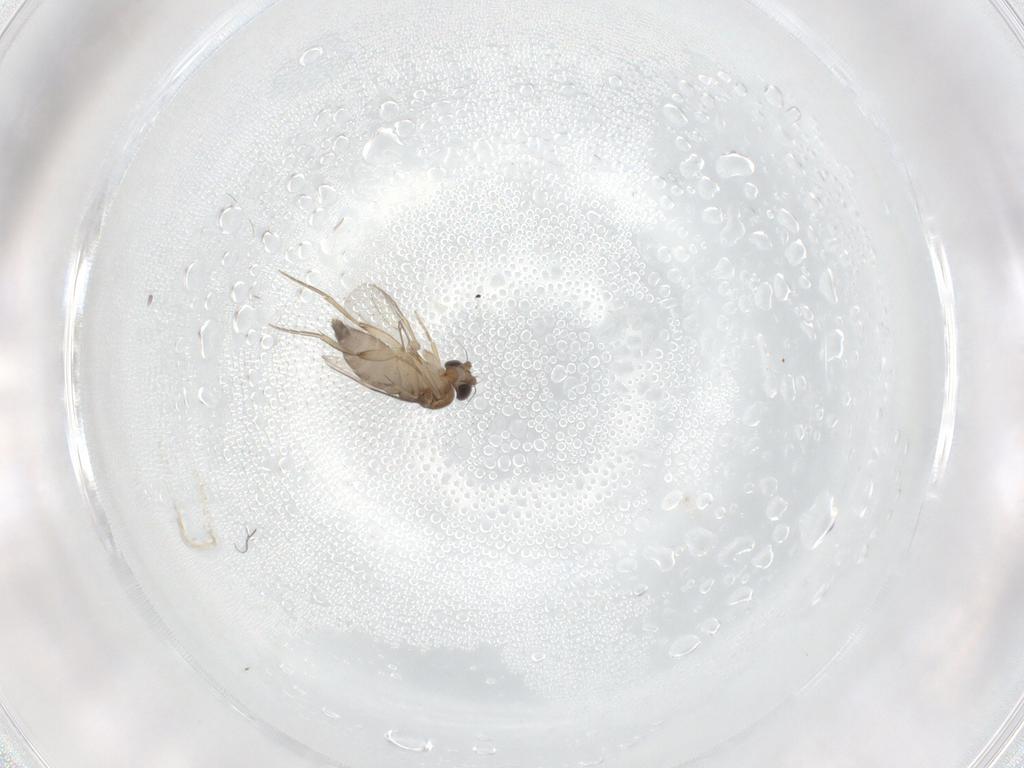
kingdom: Animalia
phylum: Arthropoda
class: Insecta
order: Diptera
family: Phoridae
